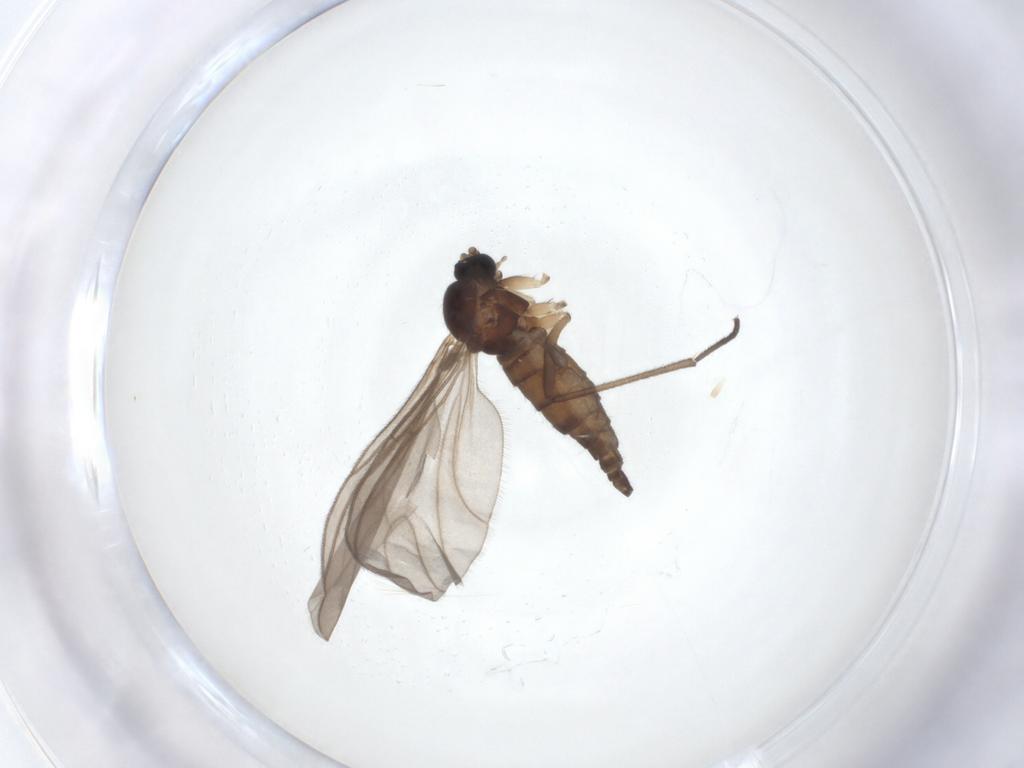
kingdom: Animalia
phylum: Arthropoda
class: Insecta
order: Diptera
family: Sciaridae
